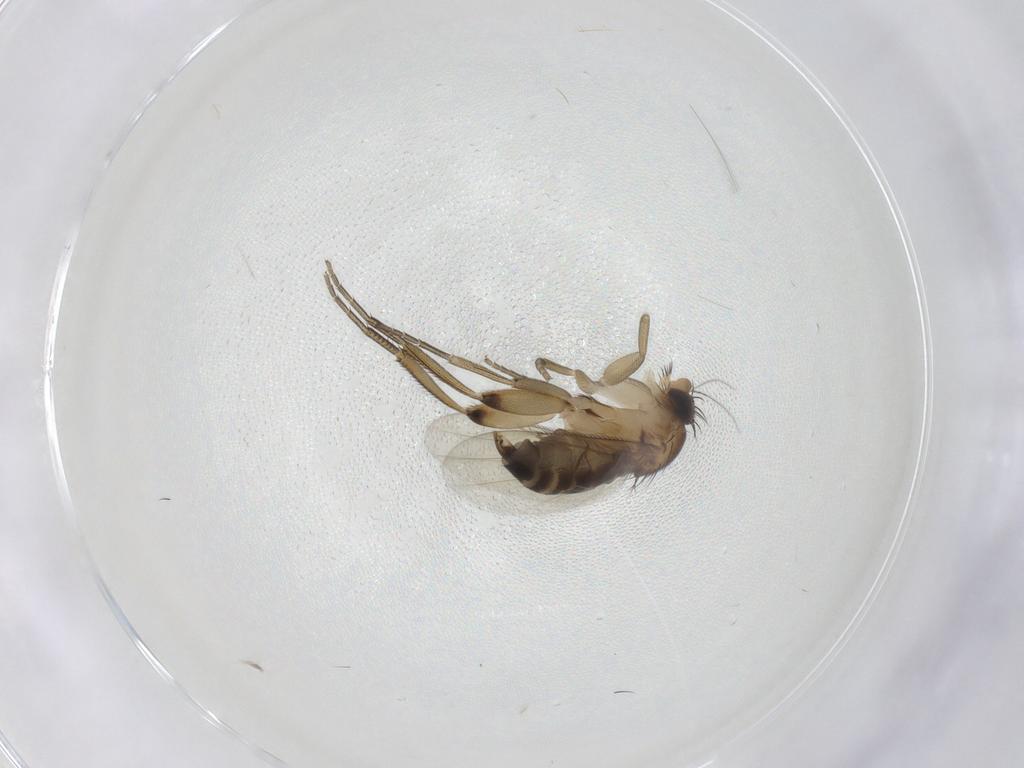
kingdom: Animalia
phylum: Arthropoda
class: Insecta
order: Diptera
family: Phoridae
